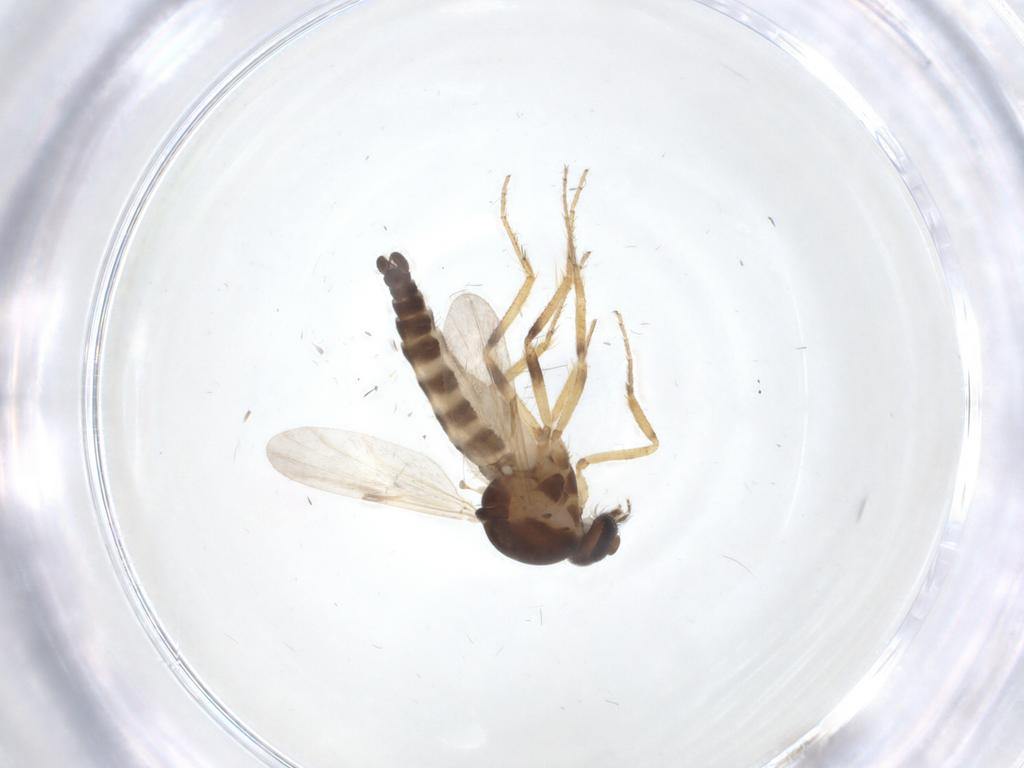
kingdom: Animalia
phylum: Arthropoda
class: Insecta
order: Diptera
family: Ceratopogonidae
